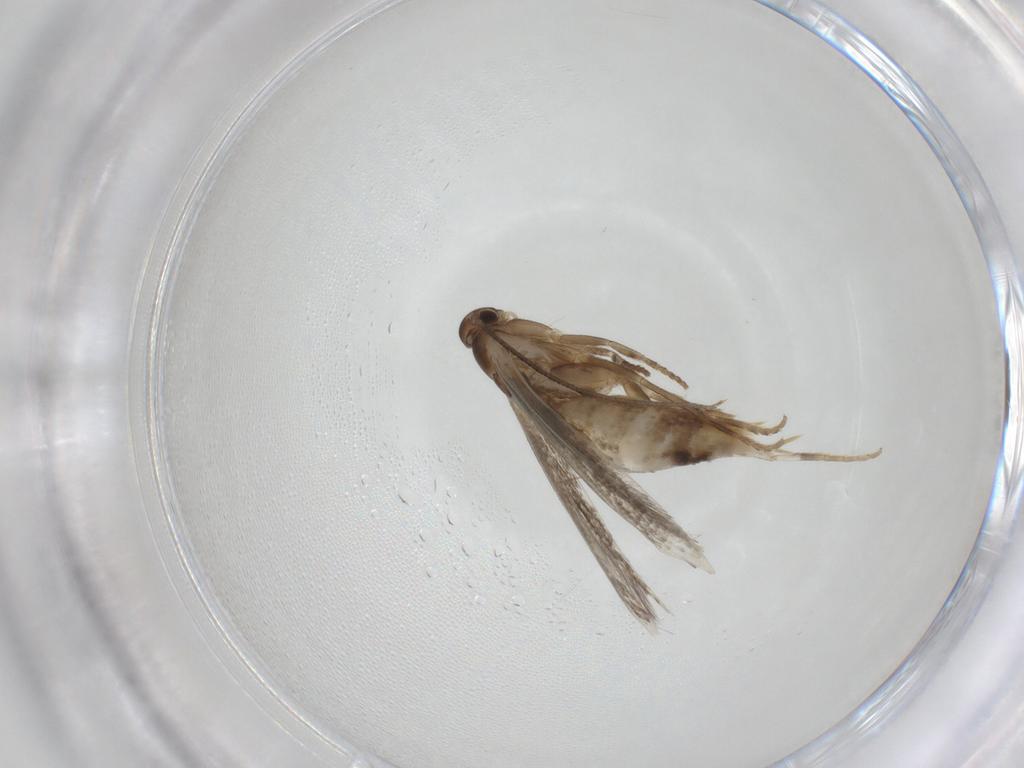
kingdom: Animalia
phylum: Arthropoda
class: Insecta
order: Lepidoptera
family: Elachistidae
